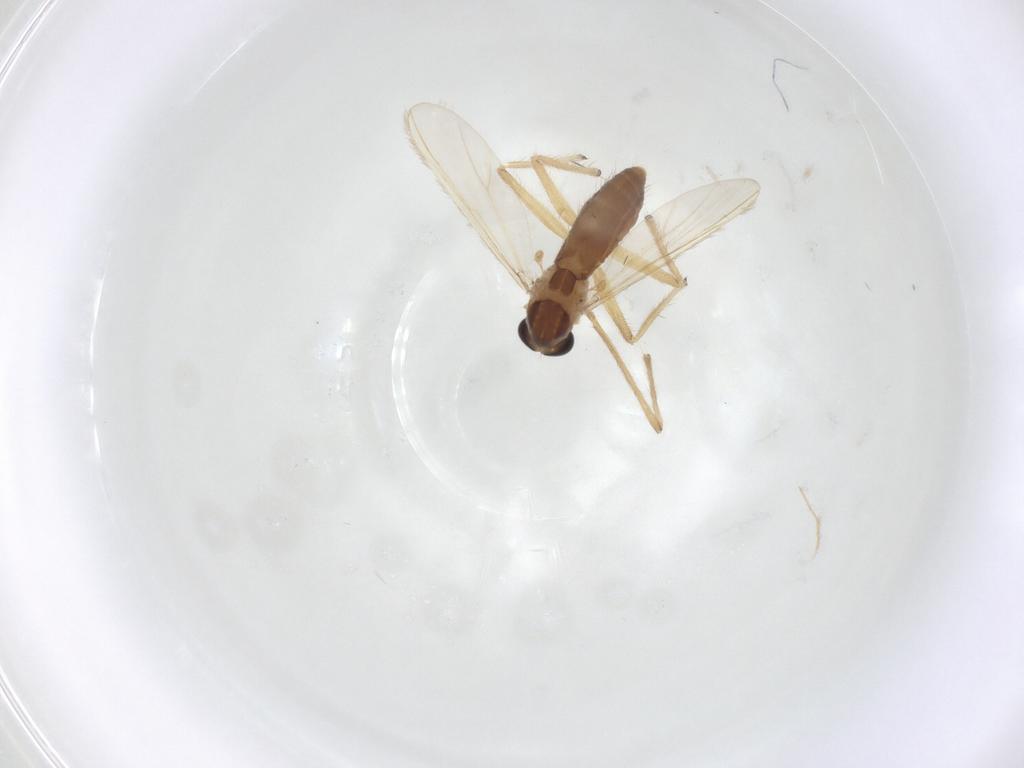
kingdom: Animalia
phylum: Arthropoda
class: Insecta
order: Diptera
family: Chironomidae
